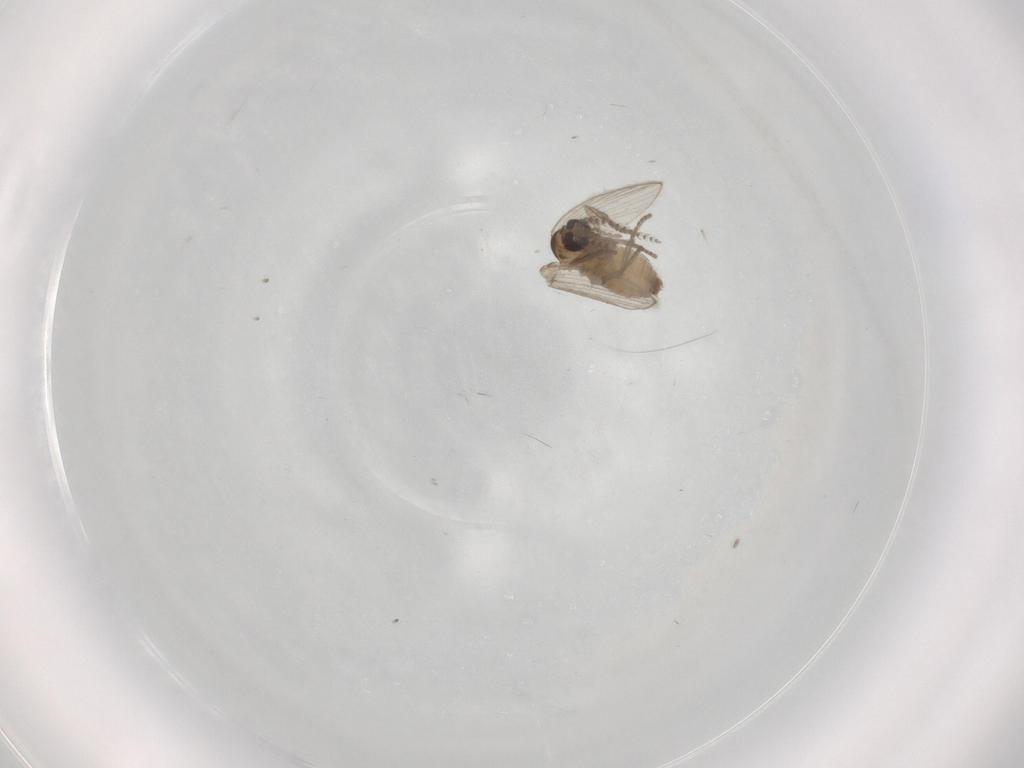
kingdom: Animalia
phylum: Arthropoda
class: Insecta
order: Diptera
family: Psychodidae
